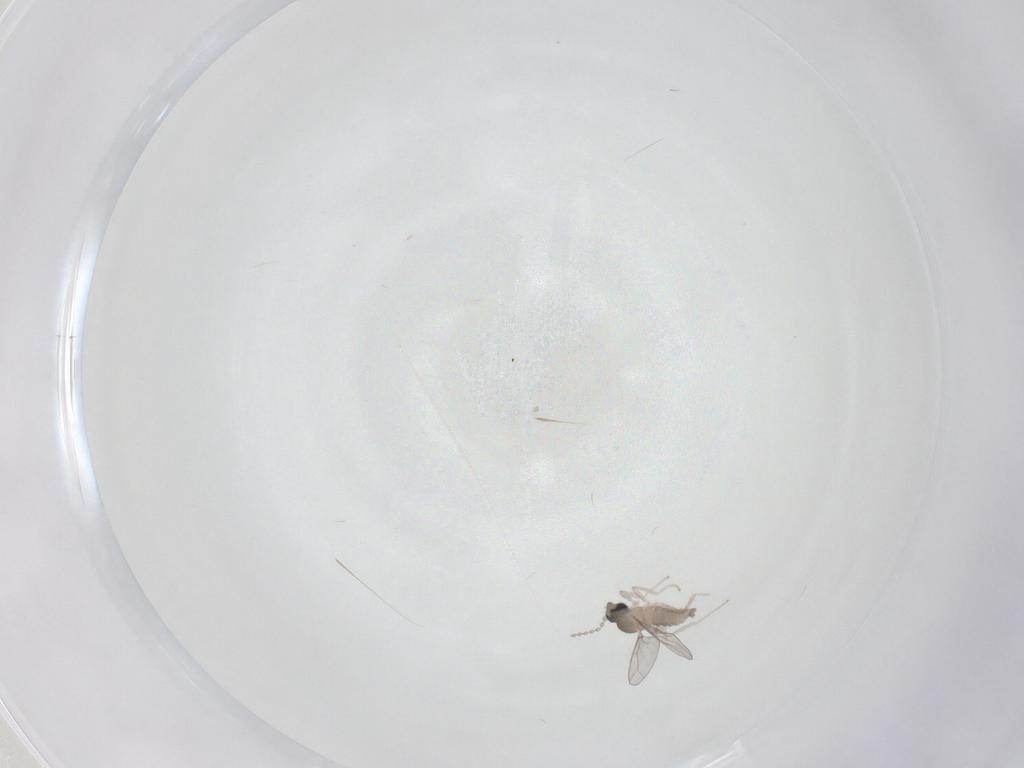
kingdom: Animalia
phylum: Arthropoda
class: Insecta
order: Diptera
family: Cecidomyiidae
